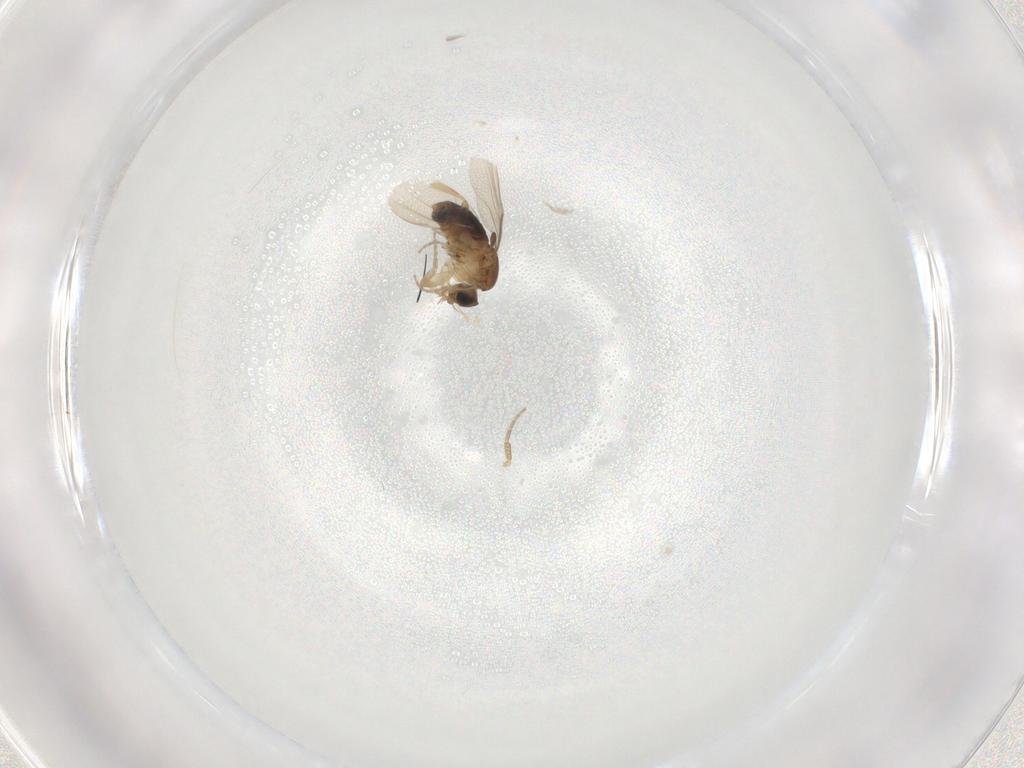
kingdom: Animalia
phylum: Arthropoda
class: Insecta
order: Diptera
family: Phoridae
